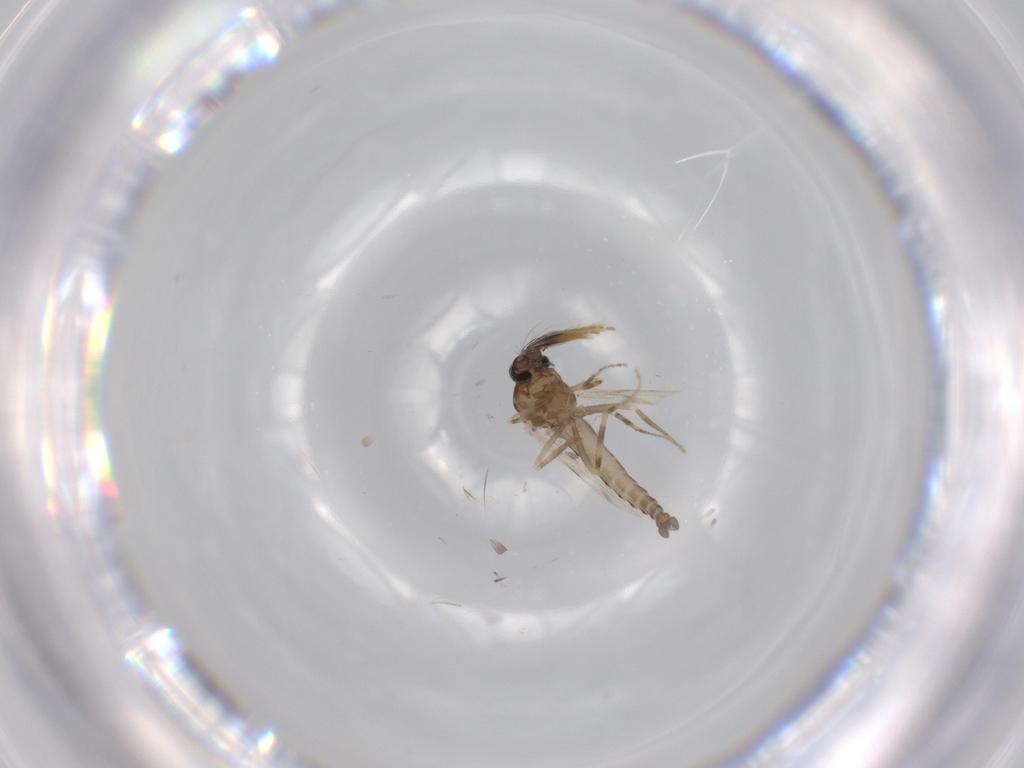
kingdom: Animalia
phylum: Arthropoda
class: Insecta
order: Diptera
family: Ceratopogonidae
